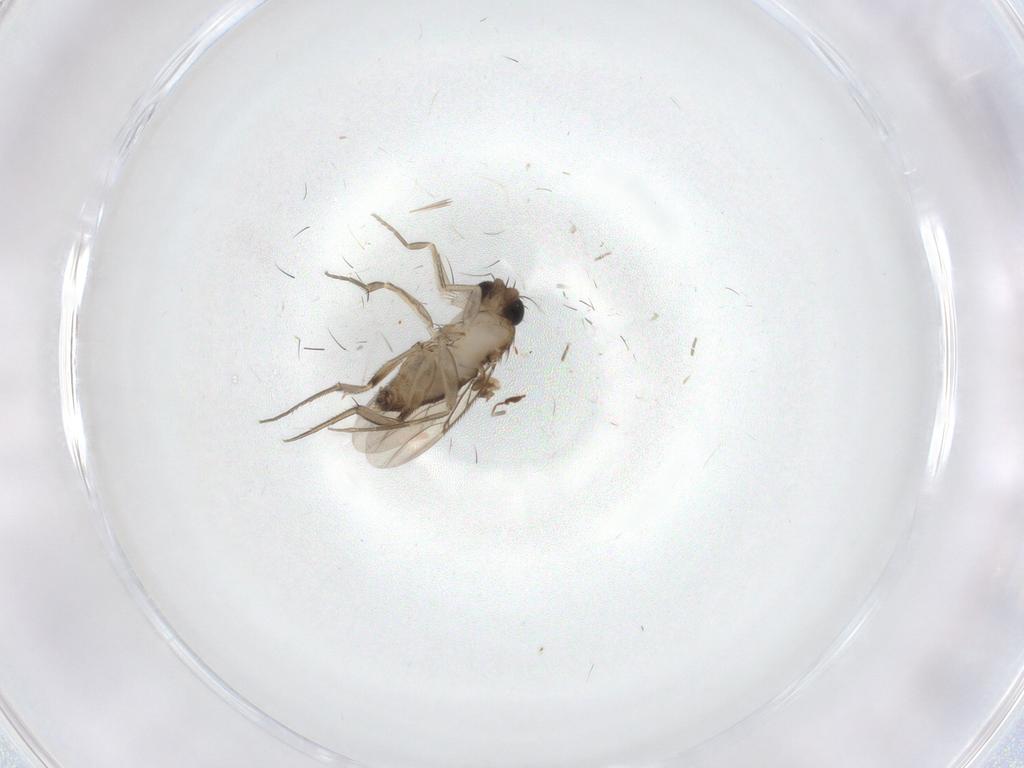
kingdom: Animalia
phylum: Arthropoda
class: Insecta
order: Diptera
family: Phoridae
